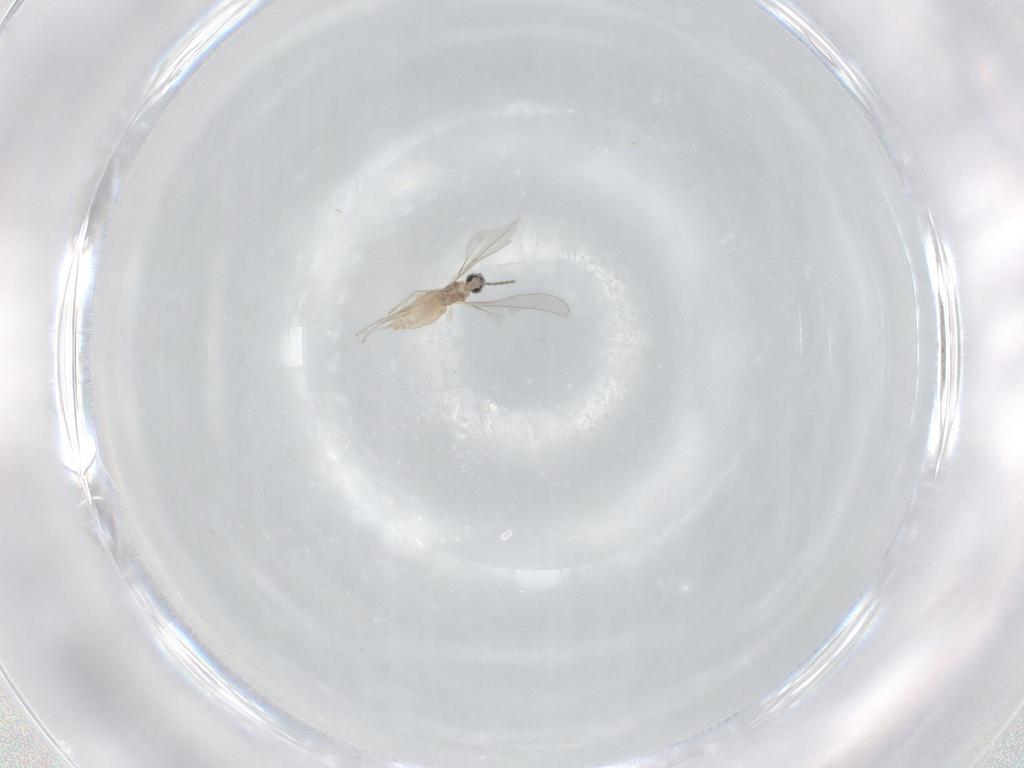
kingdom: Animalia
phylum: Arthropoda
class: Insecta
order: Diptera
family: Cecidomyiidae
